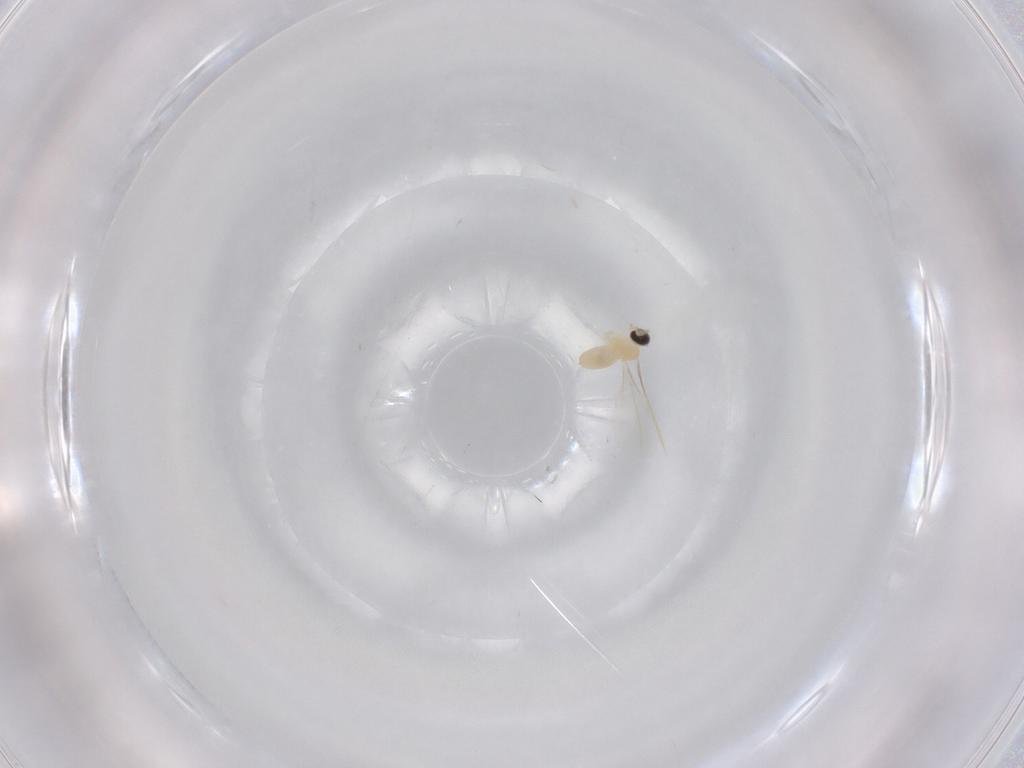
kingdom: Animalia
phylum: Arthropoda
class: Insecta
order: Diptera
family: Cecidomyiidae
